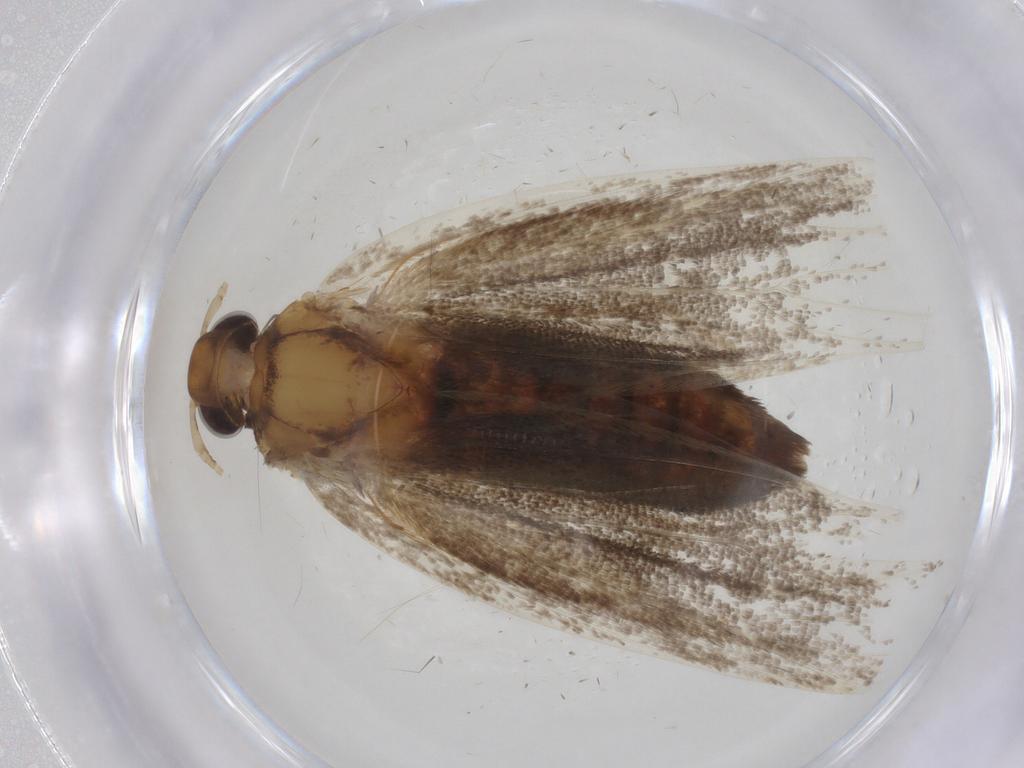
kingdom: Animalia
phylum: Arthropoda
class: Insecta
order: Lepidoptera
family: Lecithoceridae
